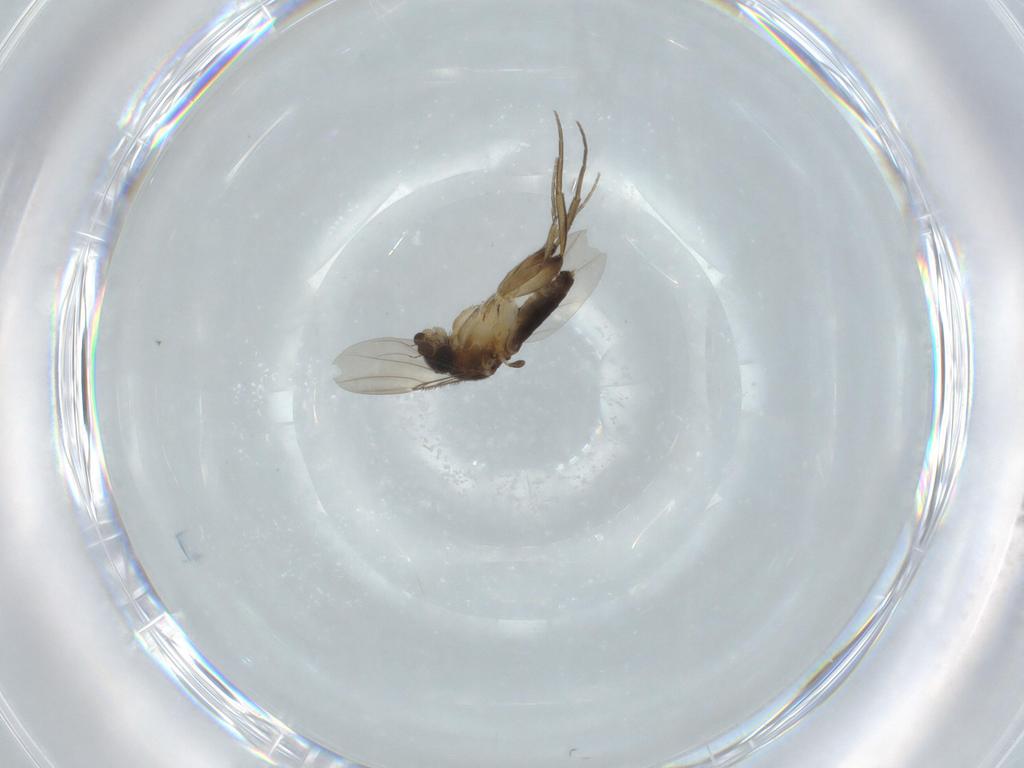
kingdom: Animalia
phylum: Arthropoda
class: Insecta
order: Diptera
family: Phoridae
